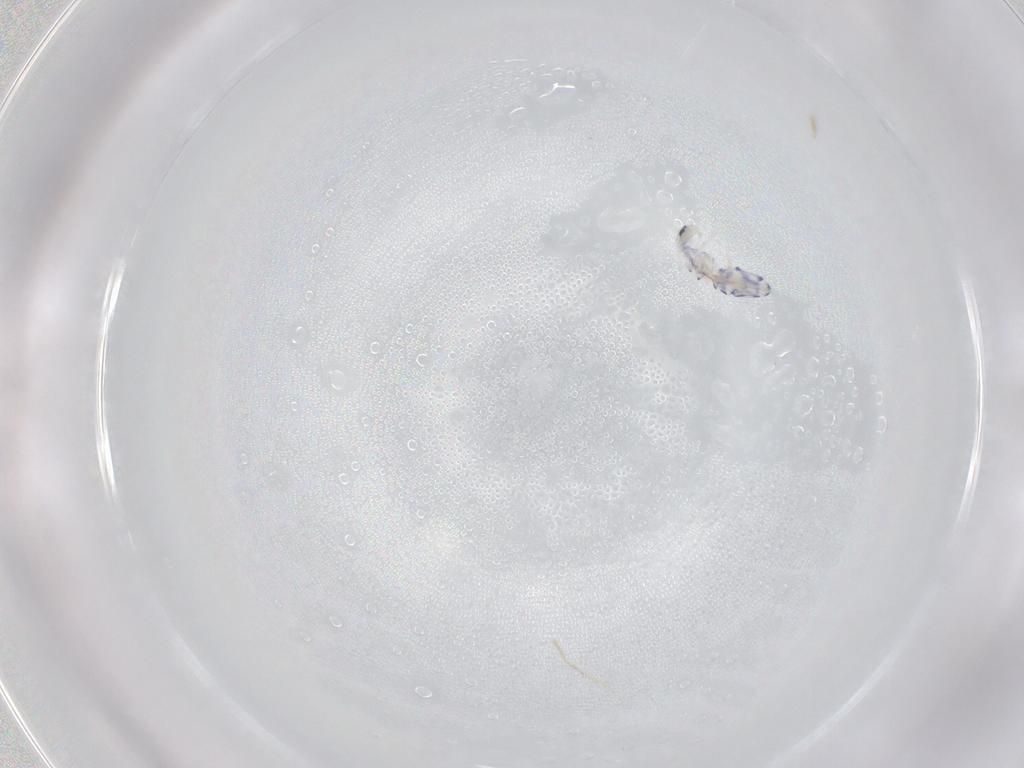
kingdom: Animalia
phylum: Arthropoda
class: Collembola
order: Entomobryomorpha
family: Entomobryidae
